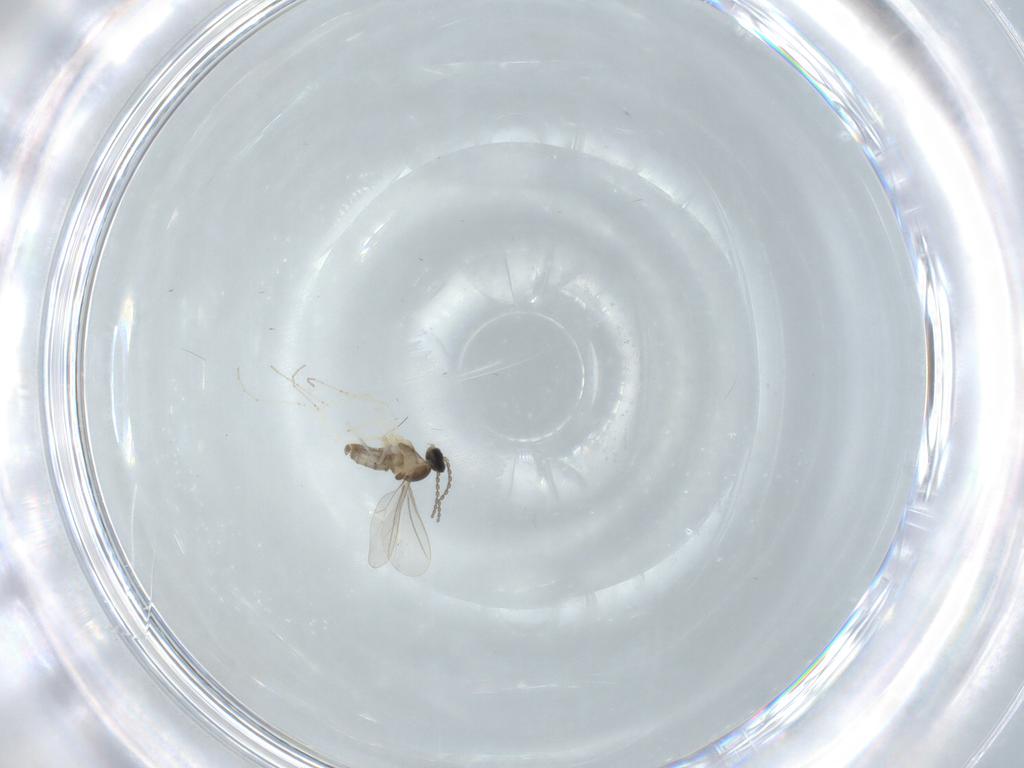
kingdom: Animalia
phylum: Arthropoda
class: Insecta
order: Diptera
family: Cecidomyiidae
